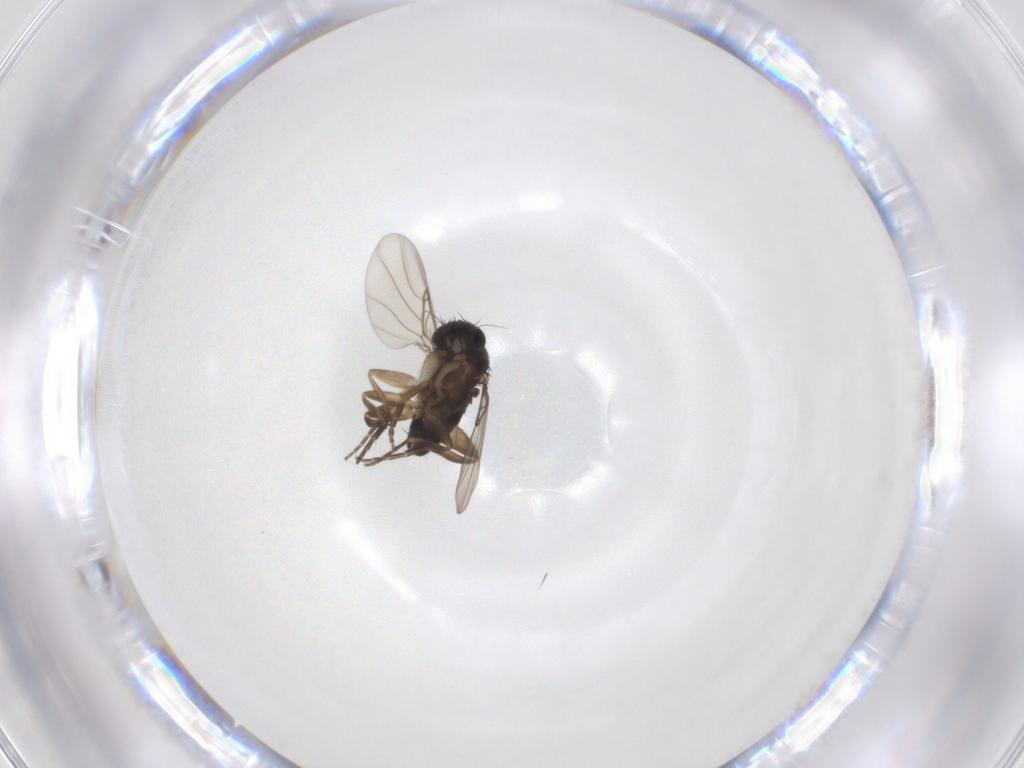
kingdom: Animalia
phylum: Arthropoda
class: Insecta
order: Diptera
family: Phoridae
